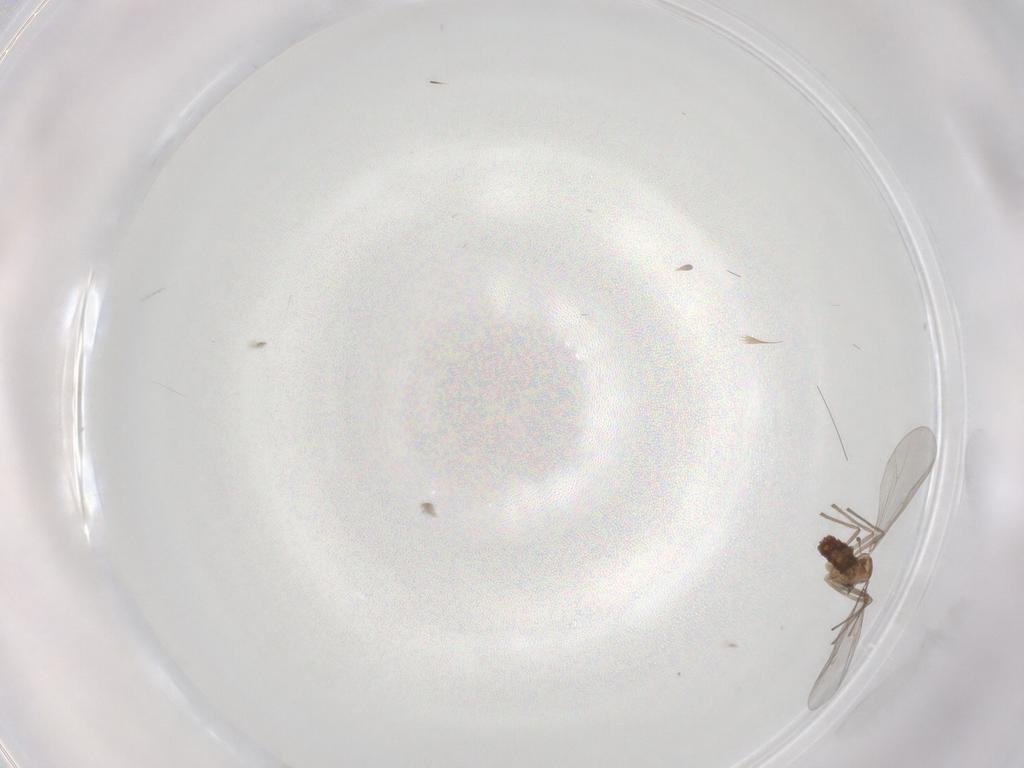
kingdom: Animalia
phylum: Arthropoda
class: Insecta
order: Diptera
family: Chironomidae
